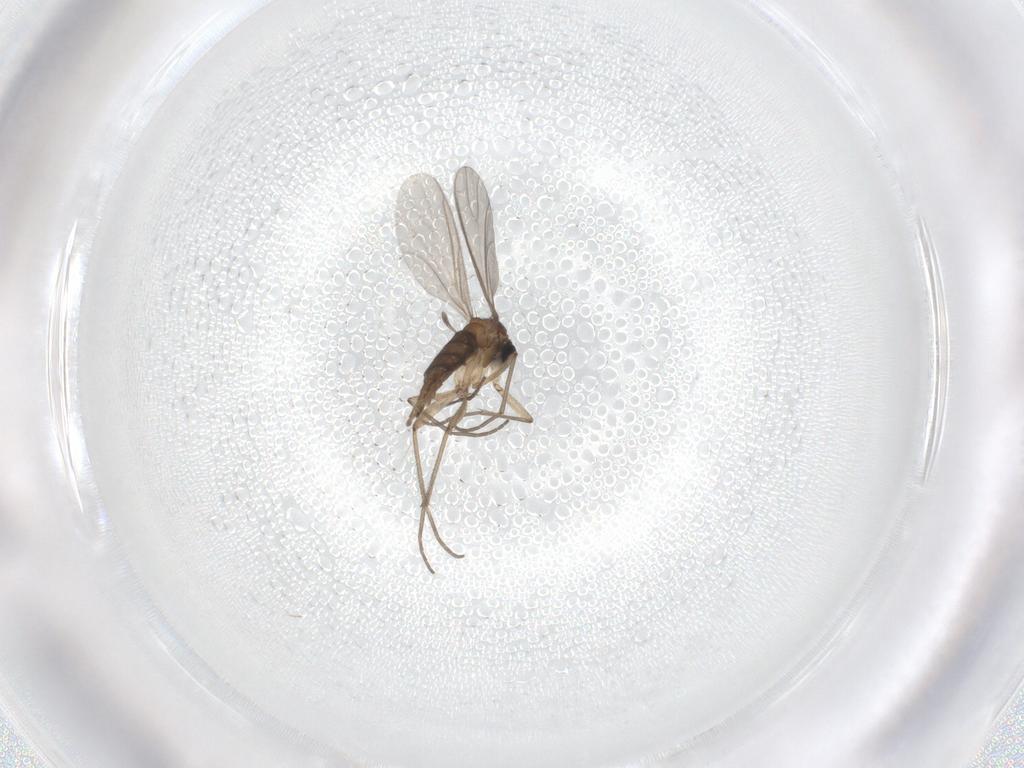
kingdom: Animalia
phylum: Arthropoda
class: Insecta
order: Diptera
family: Sciaridae
